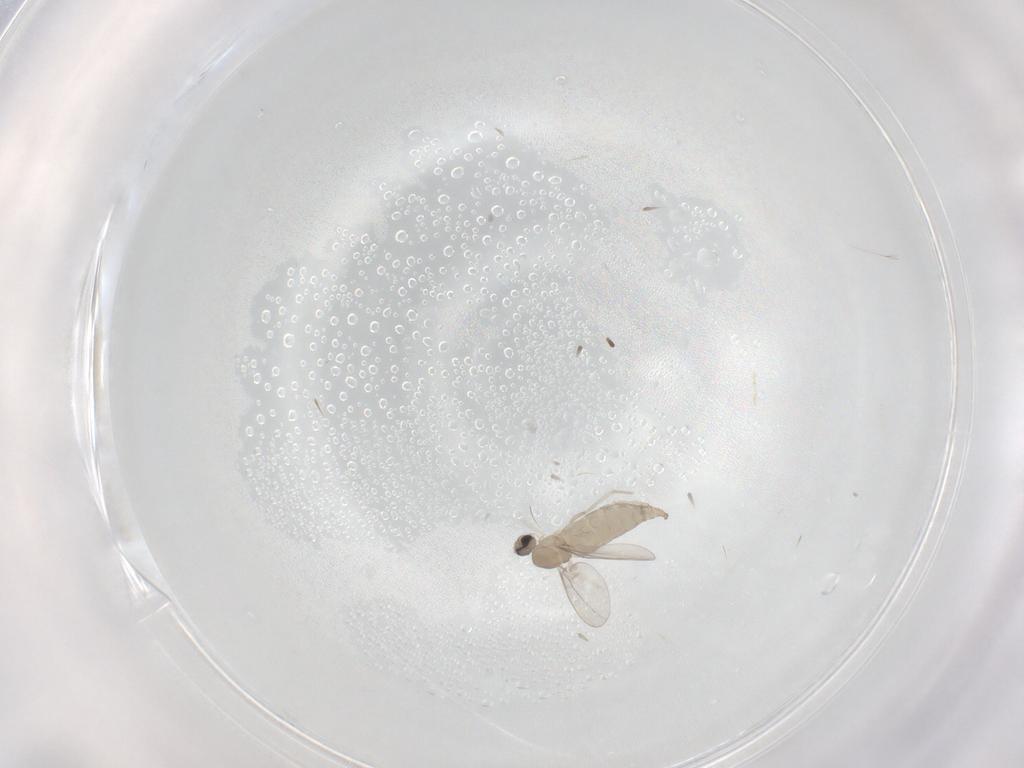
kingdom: Animalia
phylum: Arthropoda
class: Insecta
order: Diptera
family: Cecidomyiidae
